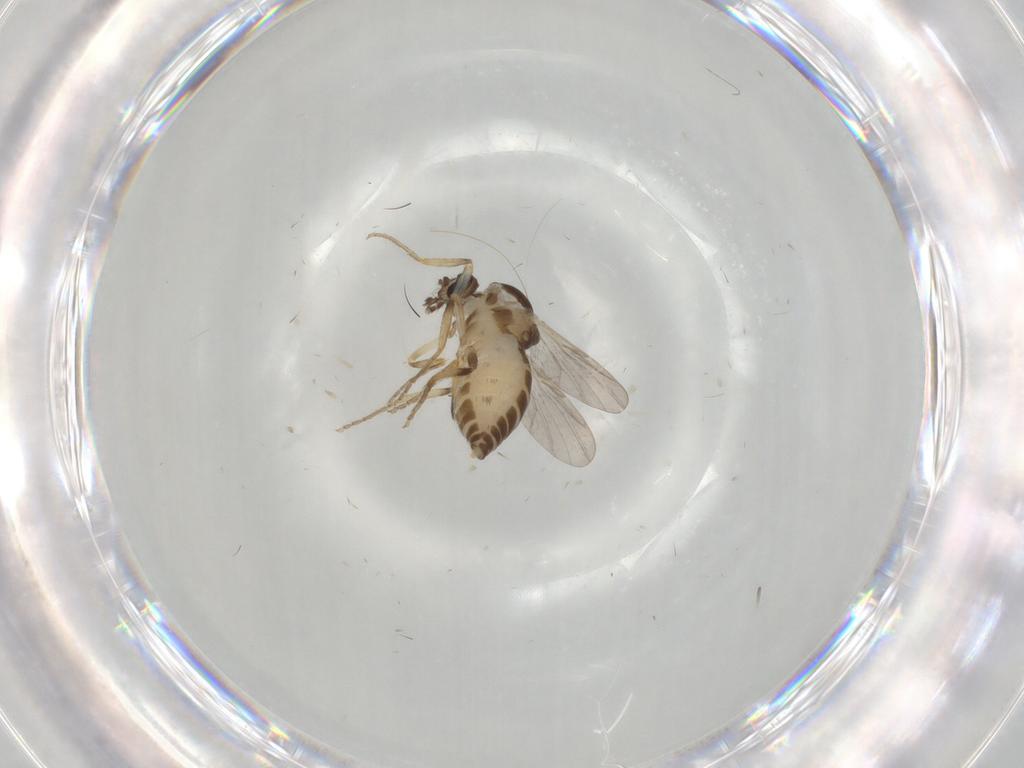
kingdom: Animalia
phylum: Arthropoda
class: Insecta
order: Diptera
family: Ceratopogonidae
